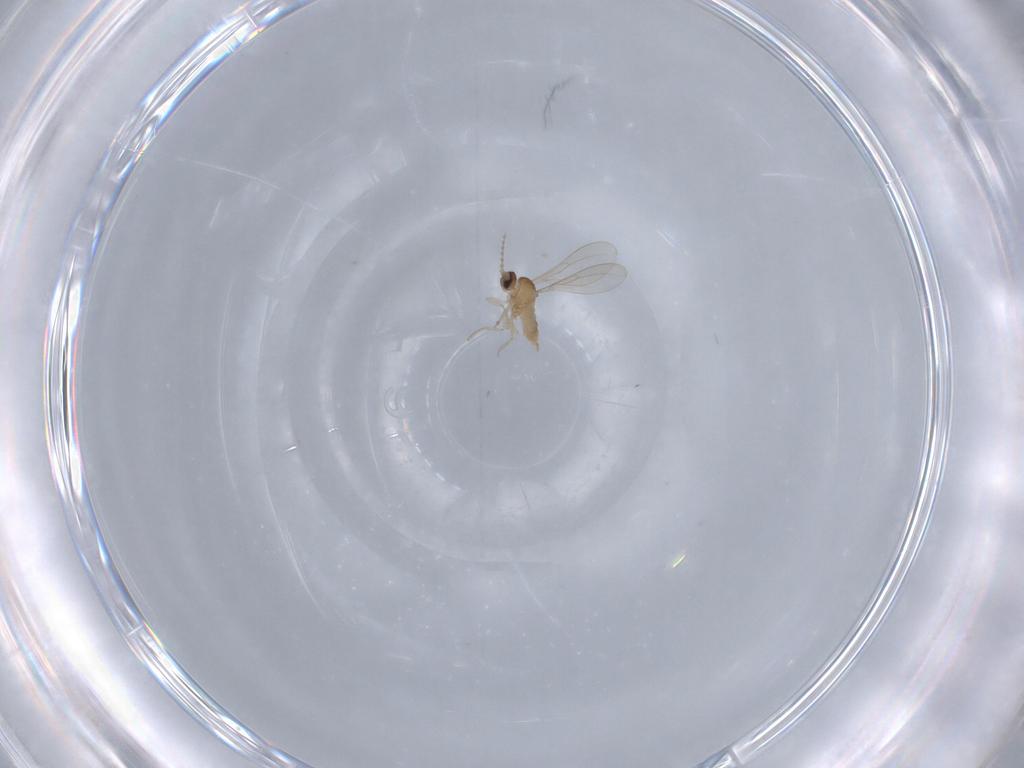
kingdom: Animalia
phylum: Arthropoda
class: Insecta
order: Diptera
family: Cecidomyiidae
